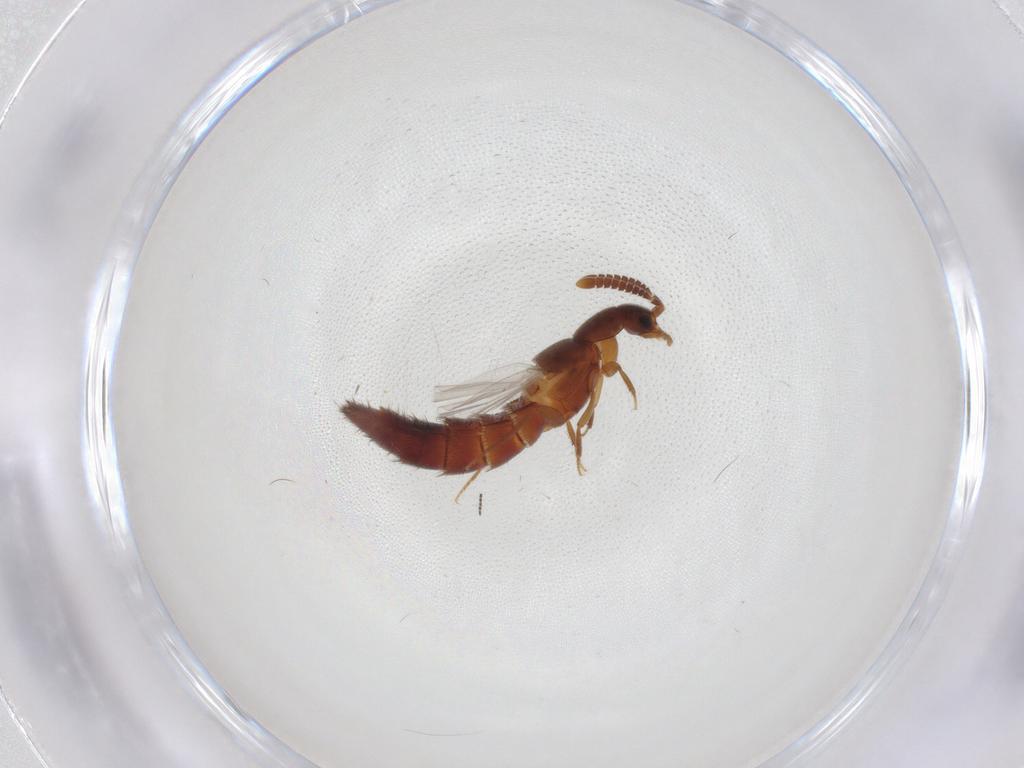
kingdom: Animalia
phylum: Arthropoda
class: Insecta
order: Coleoptera
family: Staphylinidae
